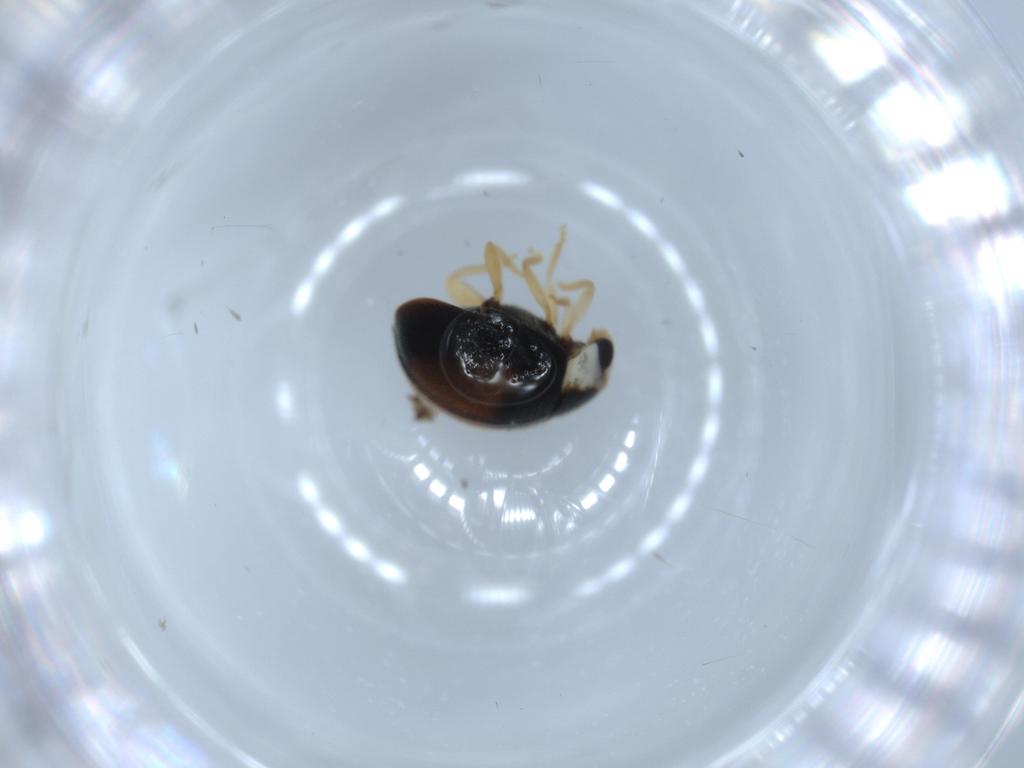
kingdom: Animalia
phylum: Arthropoda
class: Insecta
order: Coleoptera
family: Coccinellidae
